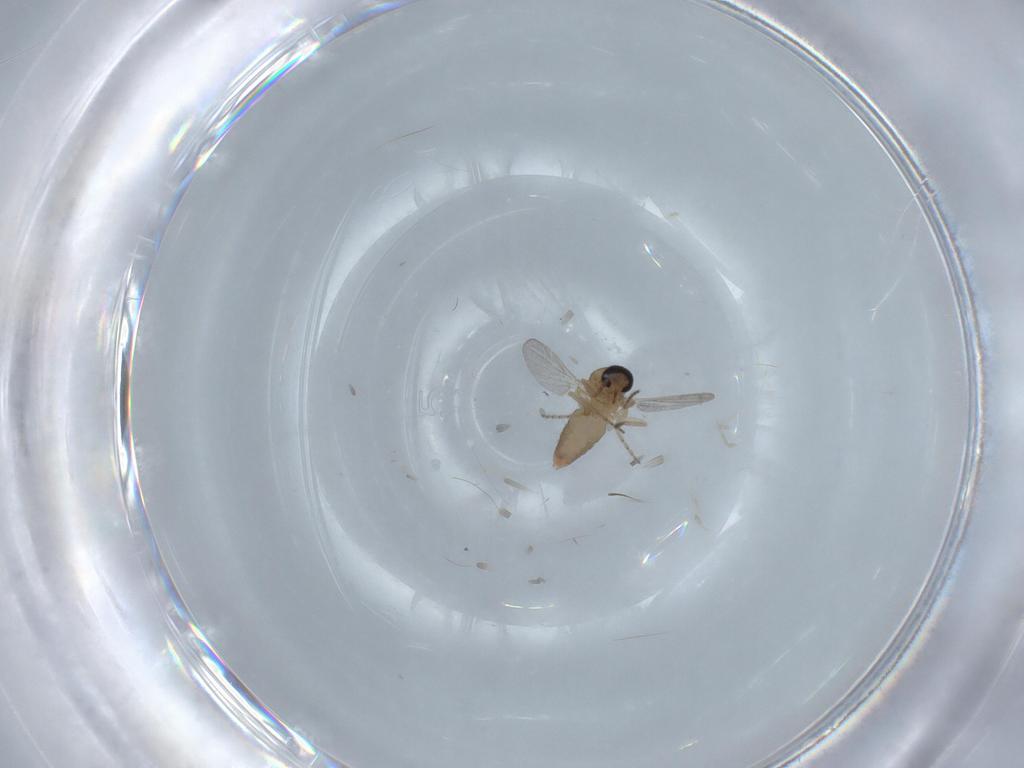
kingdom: Animalia
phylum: Arthropoda
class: Insecta
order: Diptera
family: Ceratopogonidae
